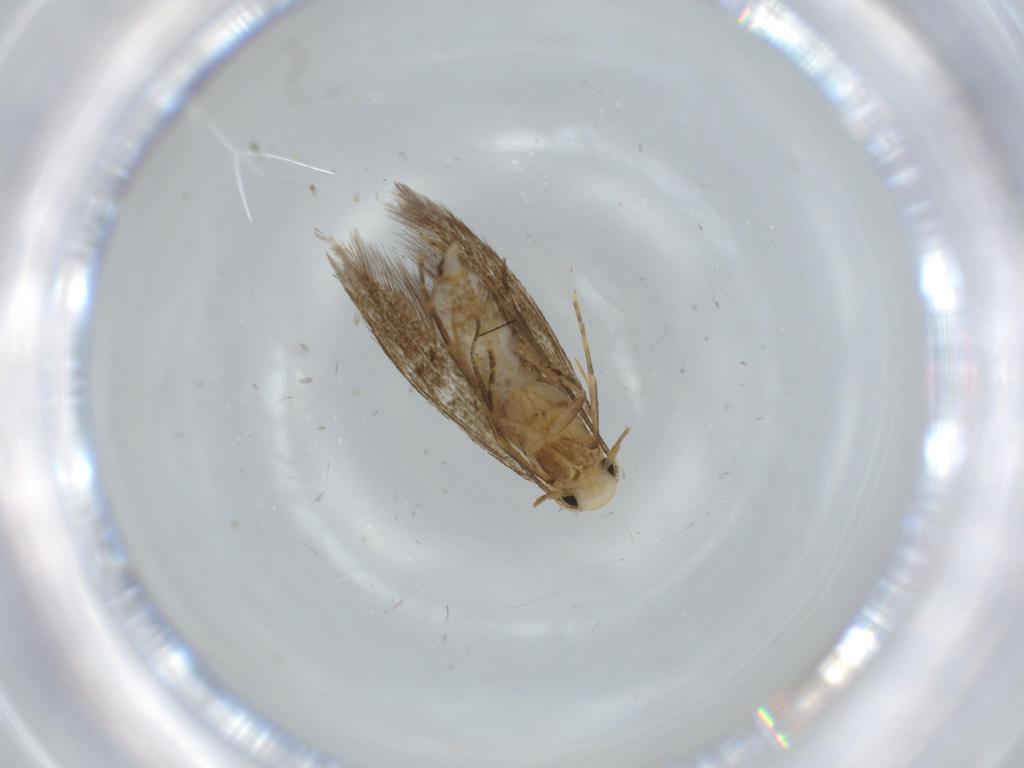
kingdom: Animalia
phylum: Arthropoda
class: Insecta
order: Lepidoptera
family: Tineidae
